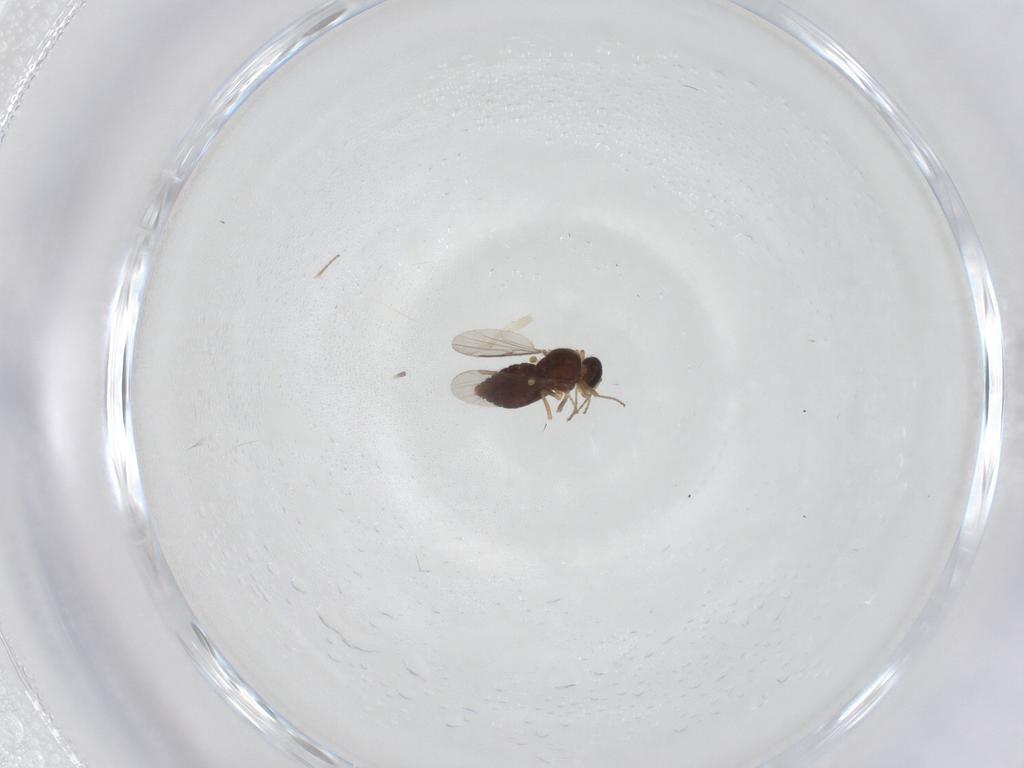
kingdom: Animalia
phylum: Arthropoda
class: Insecta
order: Diptera
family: Ceratopogonidae
